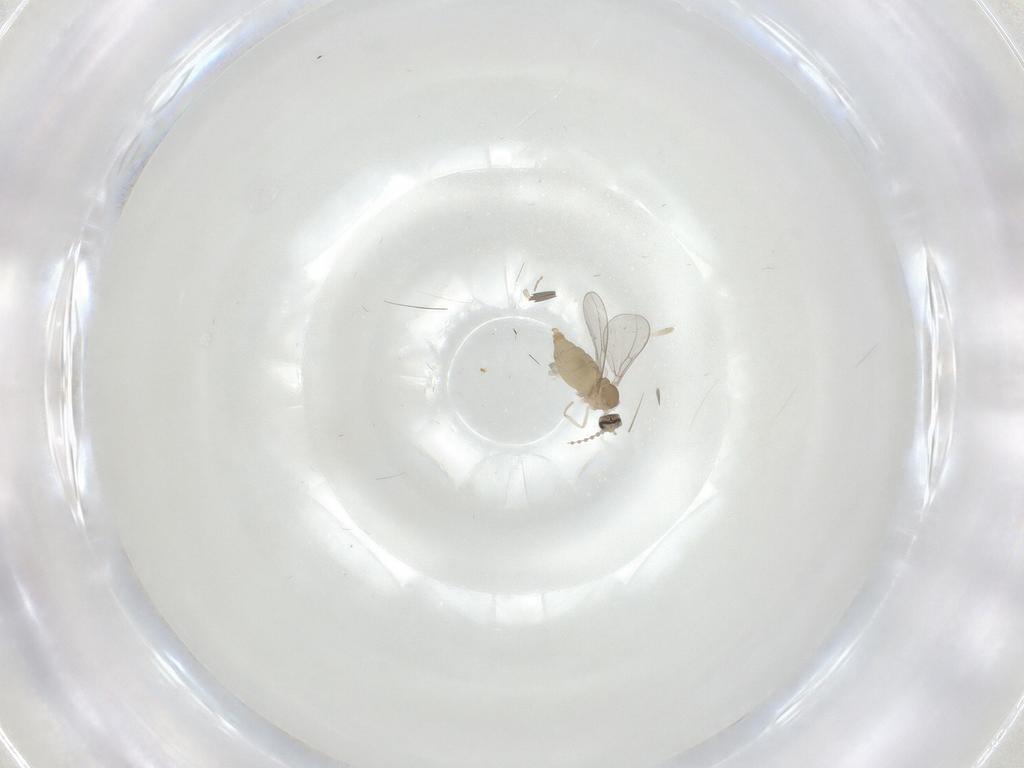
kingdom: Animalia
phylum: Arthropoda
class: Insecta
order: Diptera
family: Cecidomyiidae
